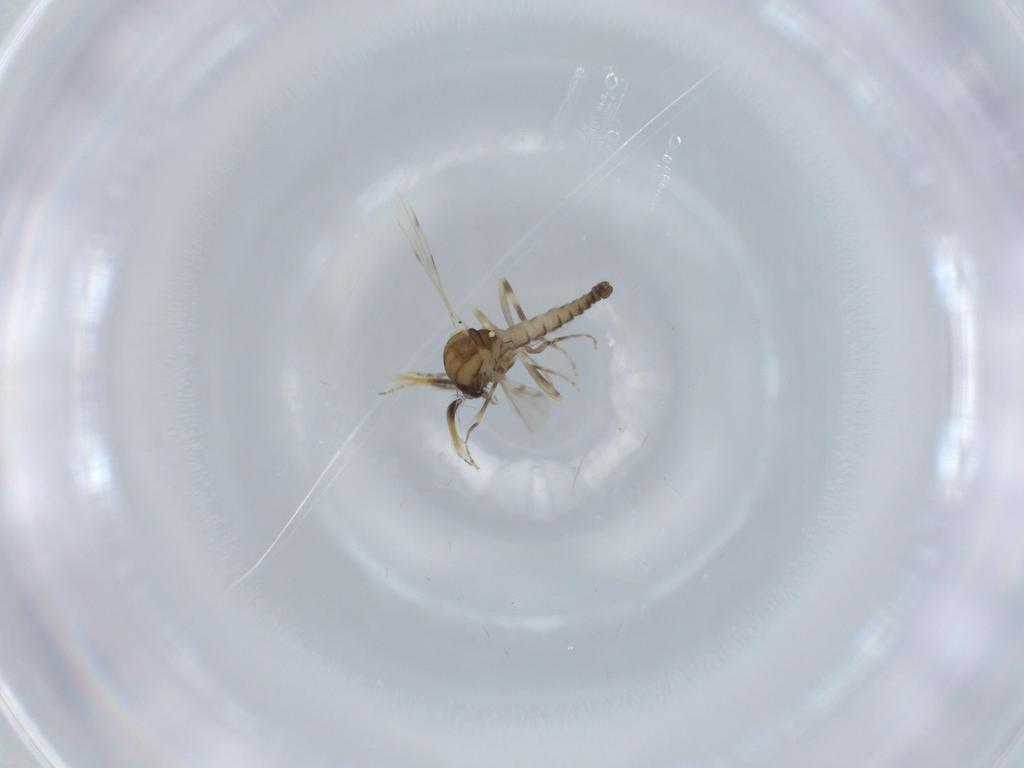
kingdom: Animalia
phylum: Arthropoda
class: Insecta
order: Diptera
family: Ceratopogonidae
